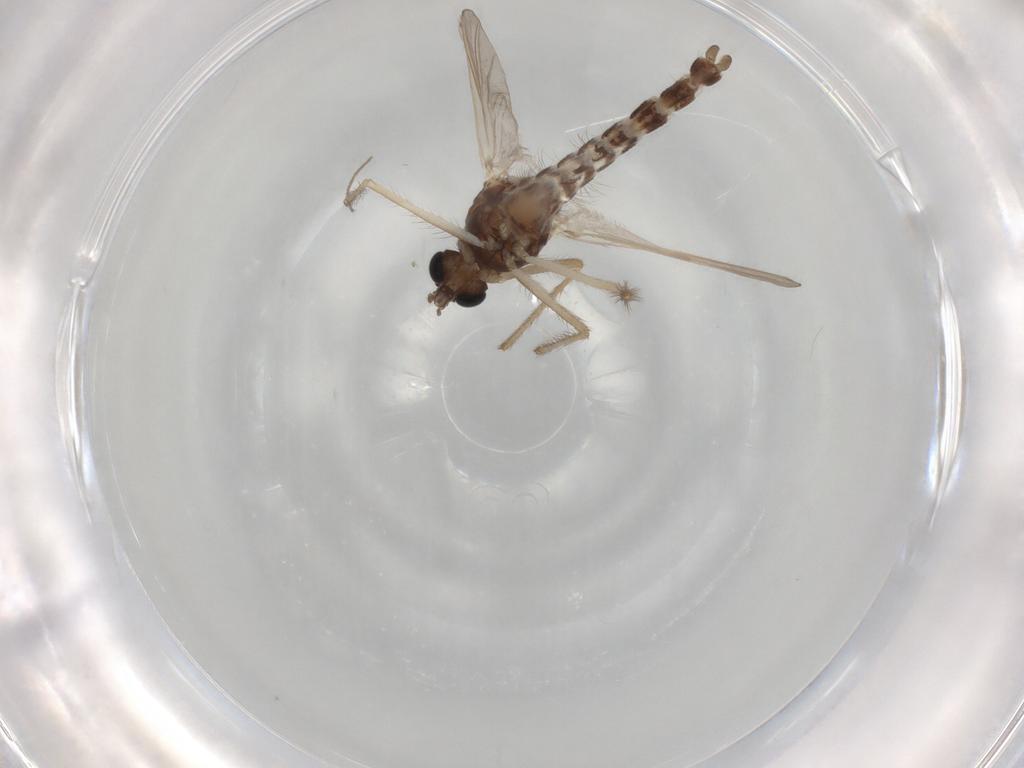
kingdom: Animalia
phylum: Arthropoda
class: Insecta
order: Diptera
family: Chironomidae
